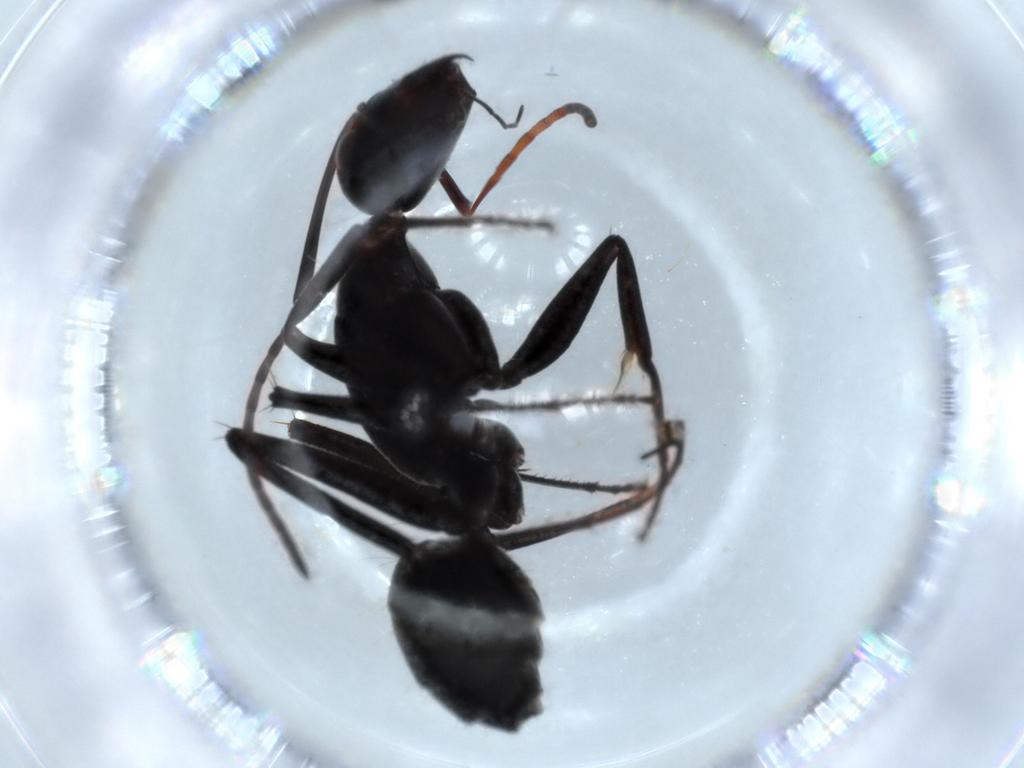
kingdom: Animalia
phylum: Arthropoda
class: Insecta
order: Hymenoptera
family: Formicidae
